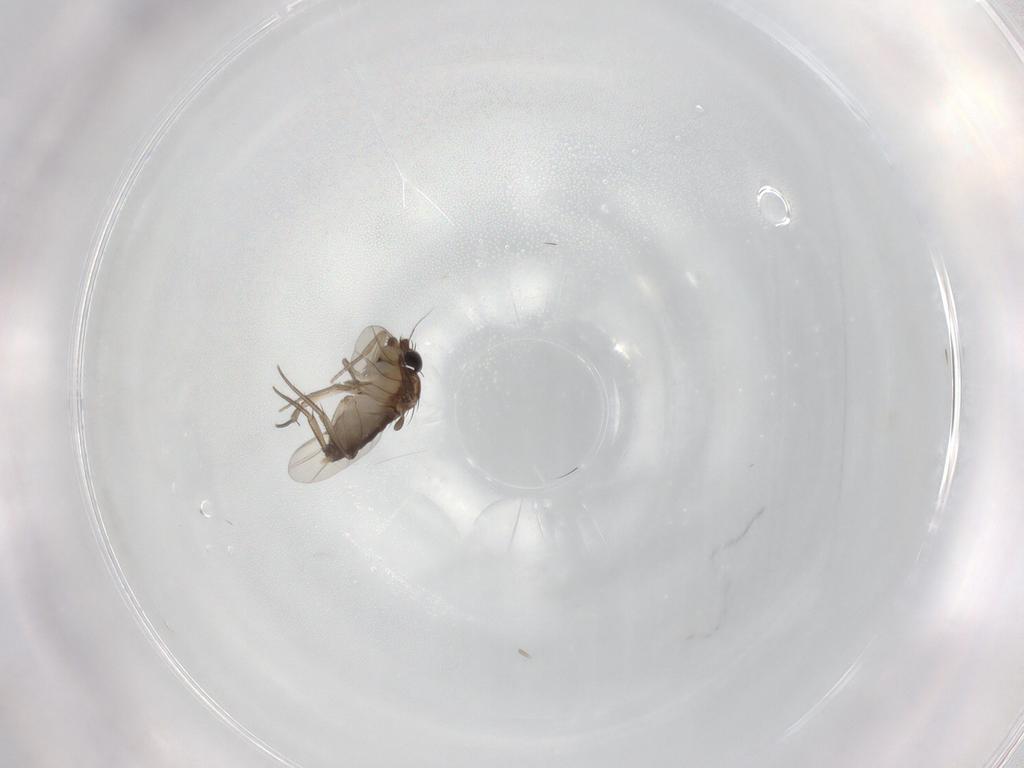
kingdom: Animalia
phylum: Arthropoda
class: Insecta
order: Diptera
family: Phoridae
